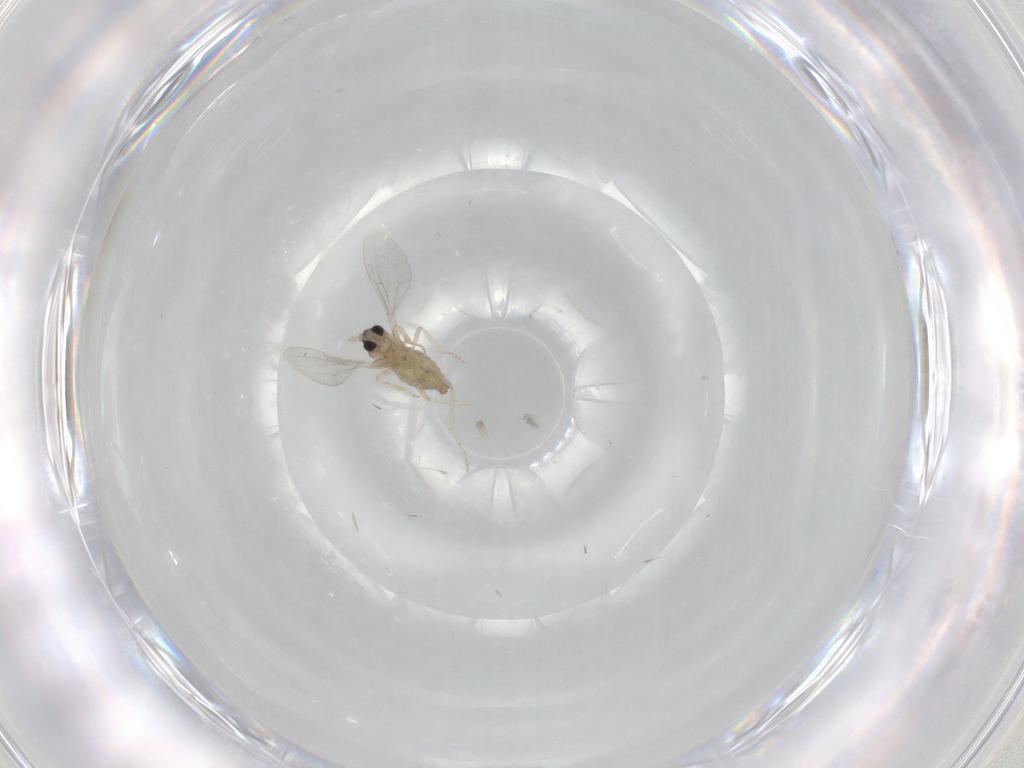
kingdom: Animalia
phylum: Arthropoda
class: Insecta
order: Diptera
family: Cecidomyiidae
